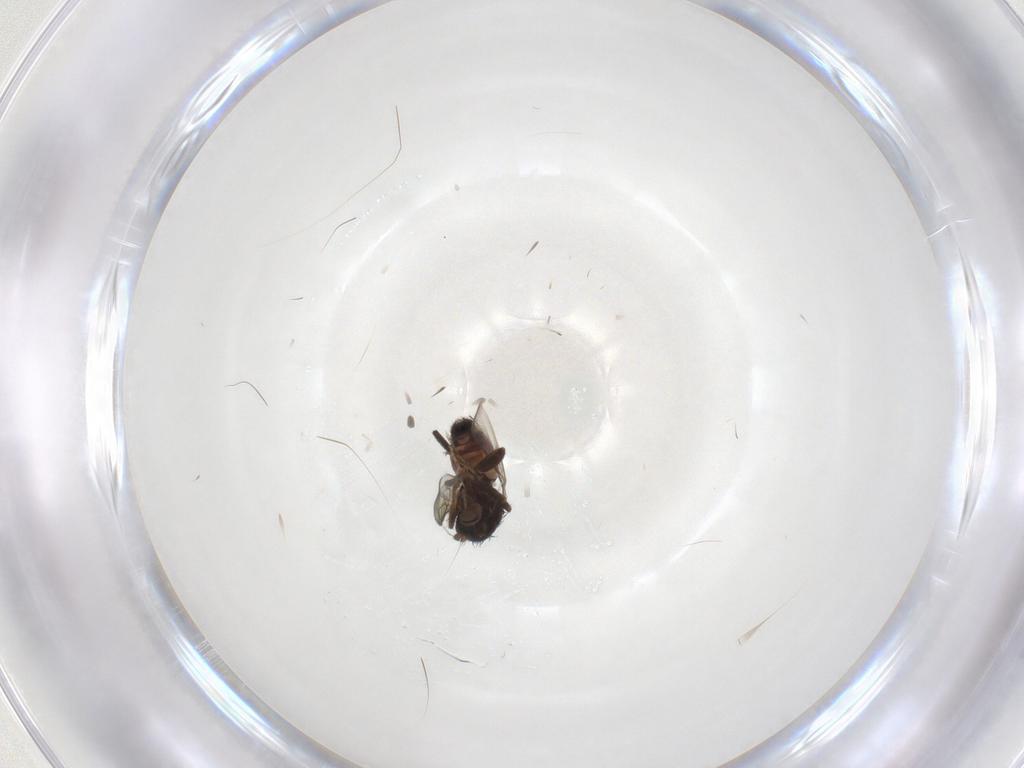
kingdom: Animalia
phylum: Arthropoda
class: Insecta
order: Diptera
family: Sphaeroceridae
